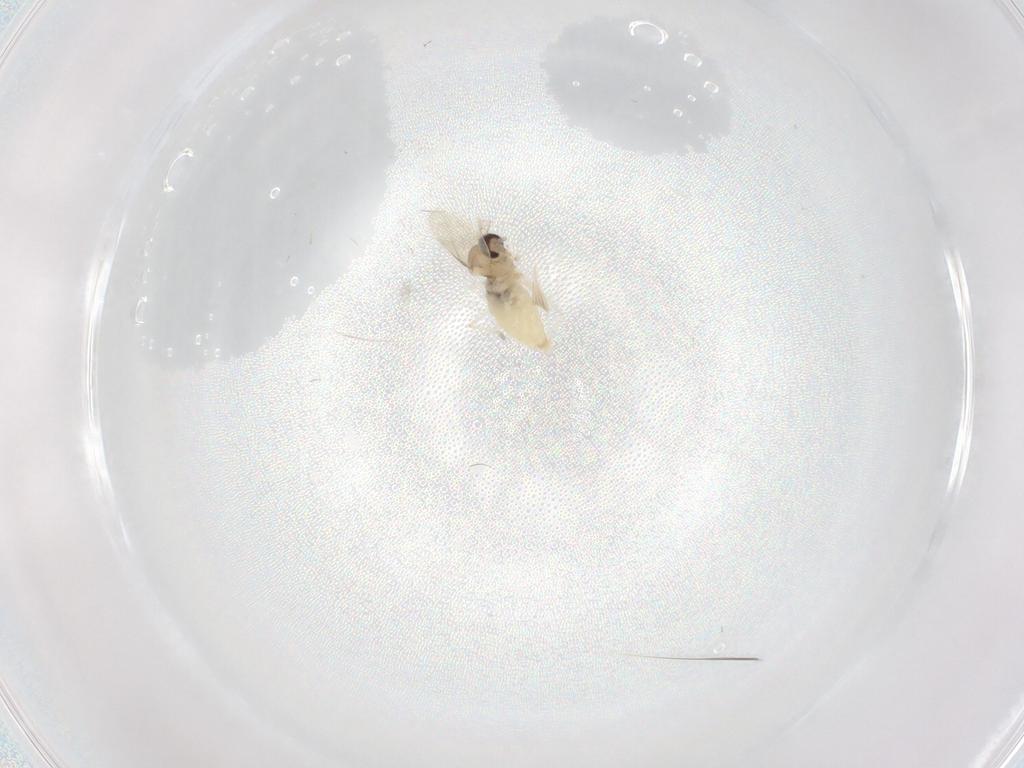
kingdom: Animalia
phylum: Arthropoda
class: Insecta
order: Diptera
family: Cecidomyiidae
